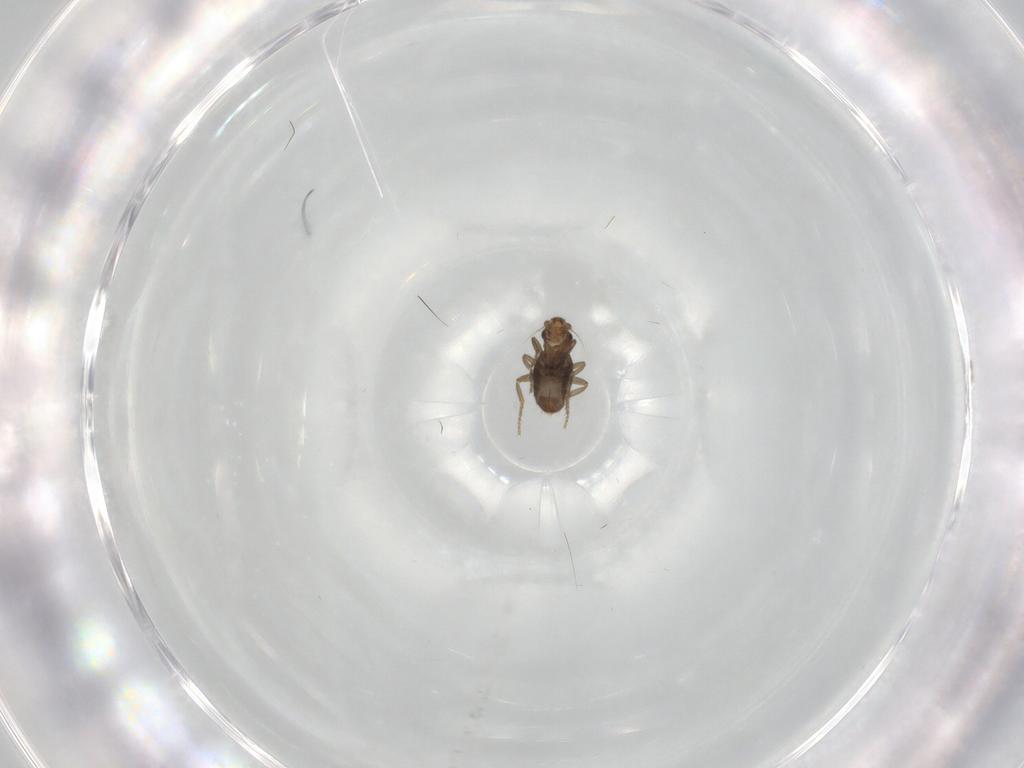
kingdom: Animalia
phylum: Arthropoda
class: Insecta
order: Diptera
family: Phoridae
